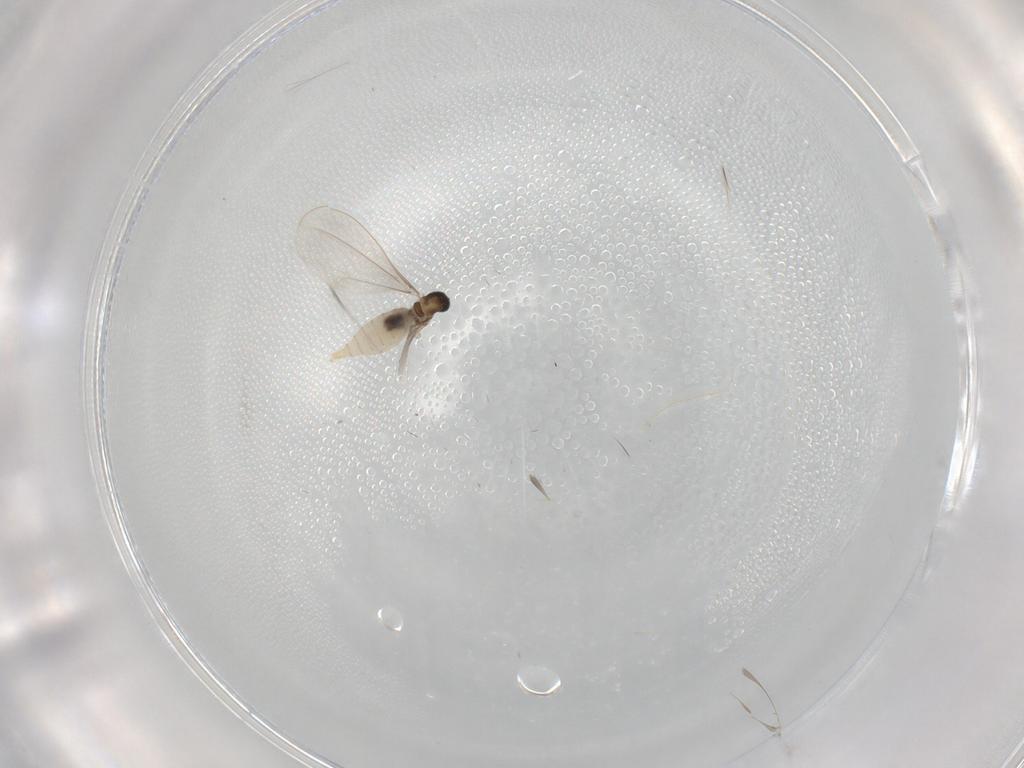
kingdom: Animalia
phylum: Arthropoda
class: Insecta
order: Diptera
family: Cecidomyiidae
